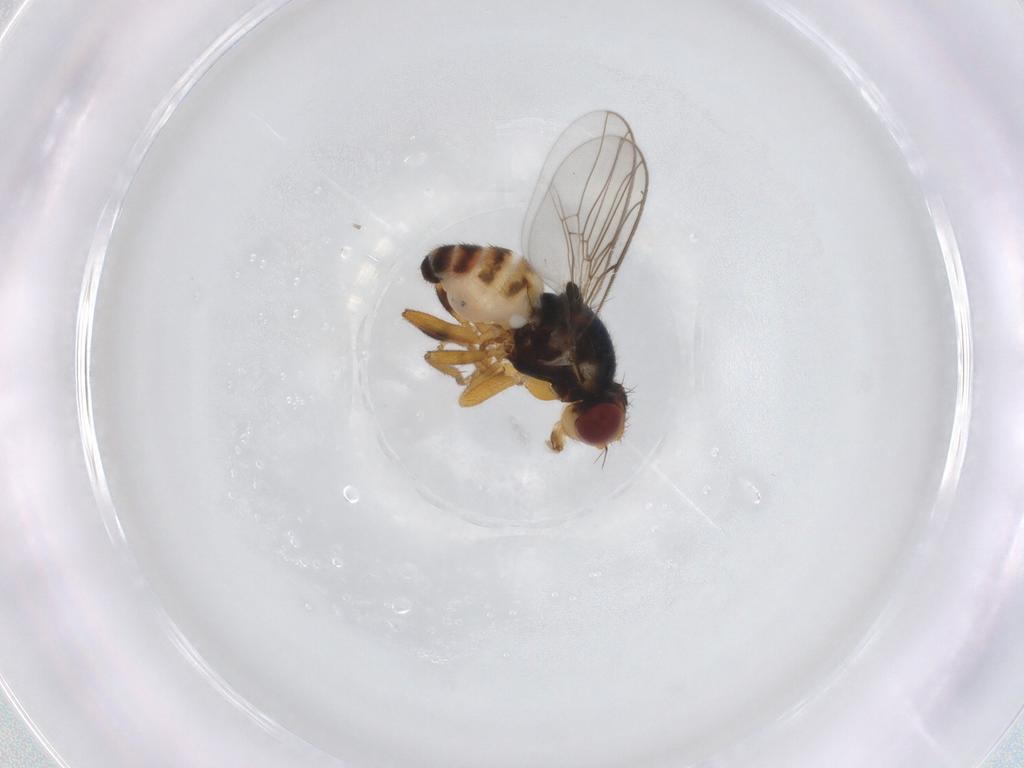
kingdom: Animalia
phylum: Arthropoda
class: Insecta
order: Diptera
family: Chloropidae
